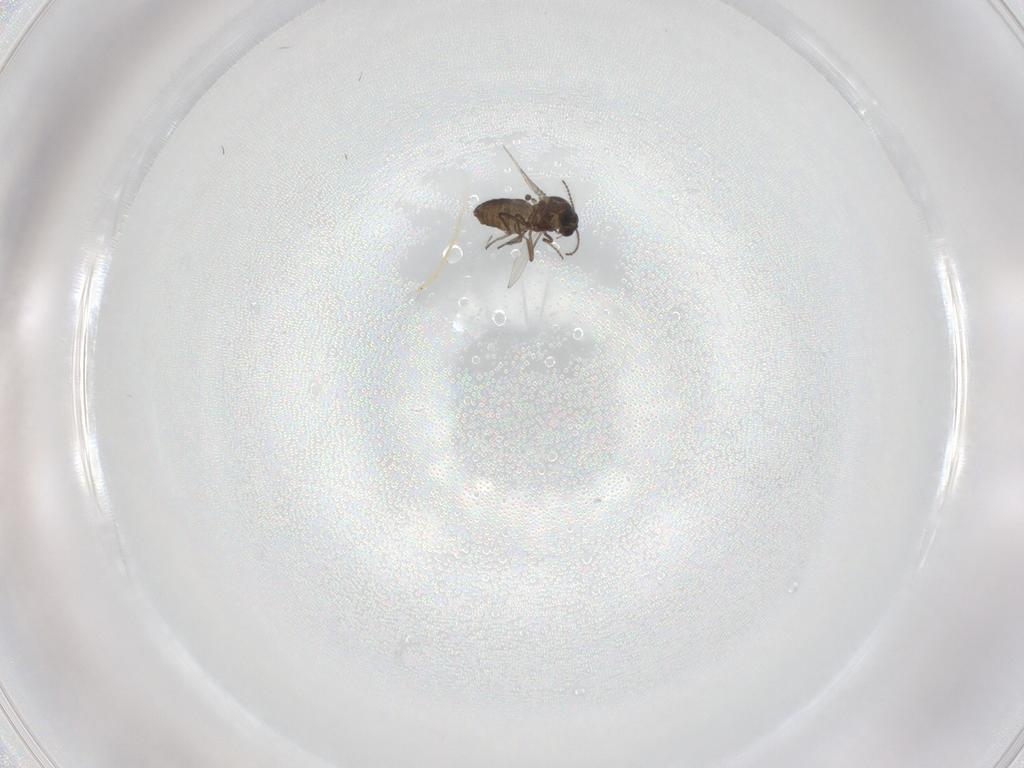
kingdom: Animalia
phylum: Arthropoda
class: Insecta
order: Diptera
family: Ceratopogonidae
